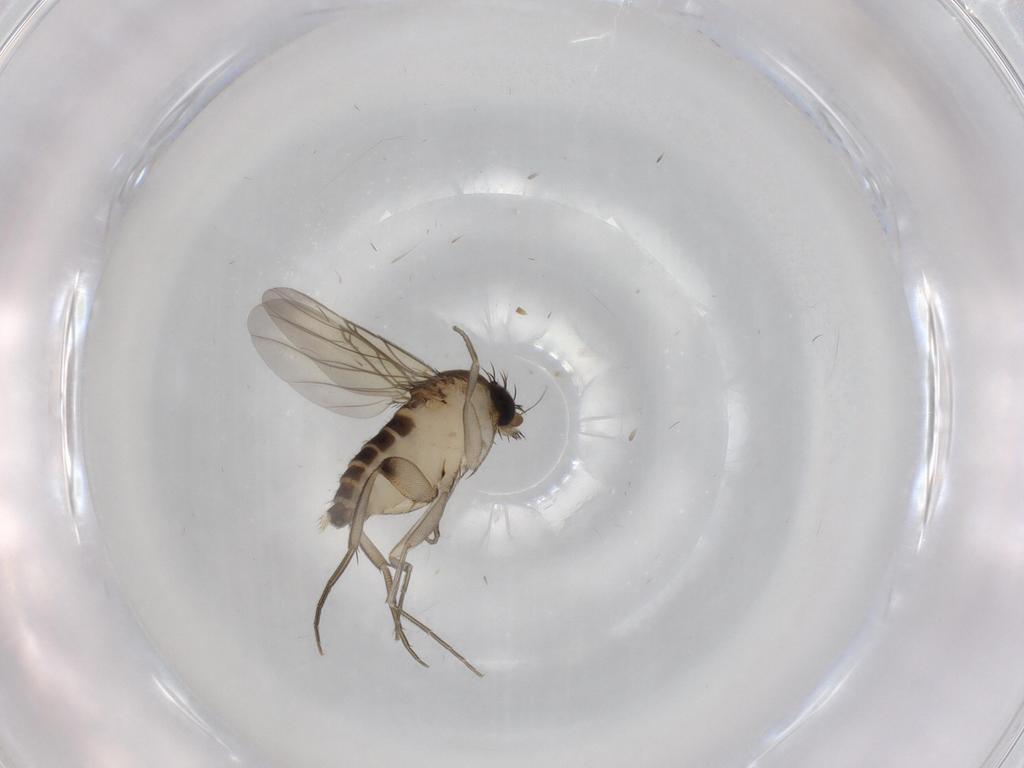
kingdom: Animalia
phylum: Arthropoda
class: Insecta
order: Diptera
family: Phoridae
